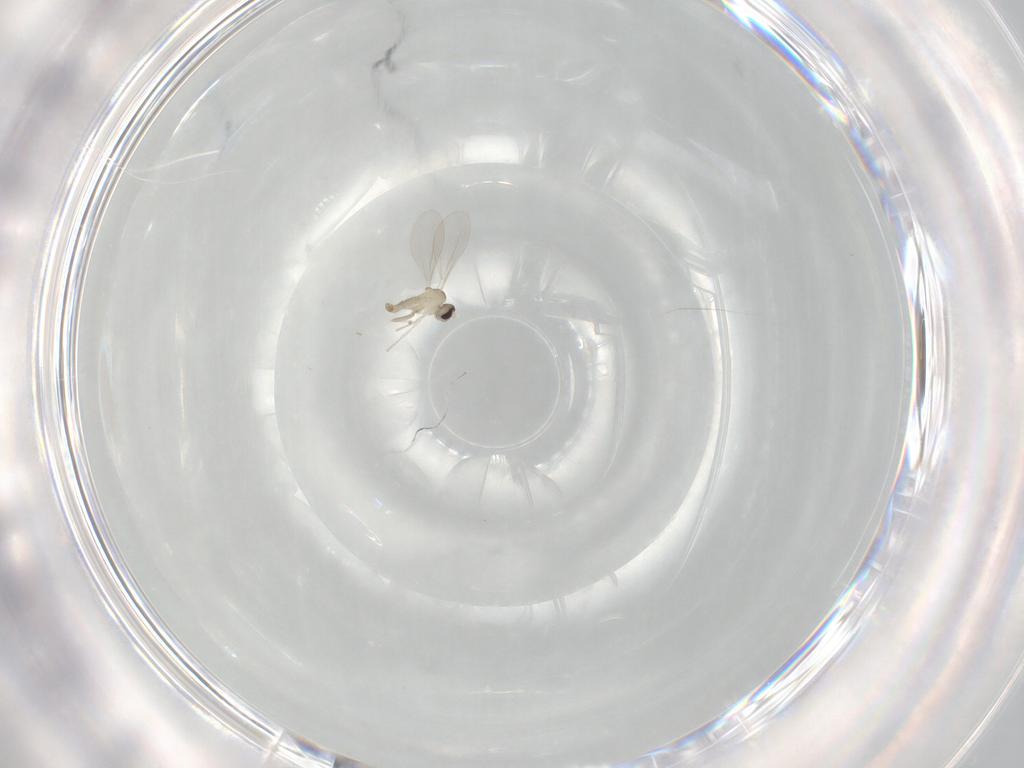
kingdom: Animalia
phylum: Arthropoda
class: Insecta
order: Diptera
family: Cecidomyiidae
